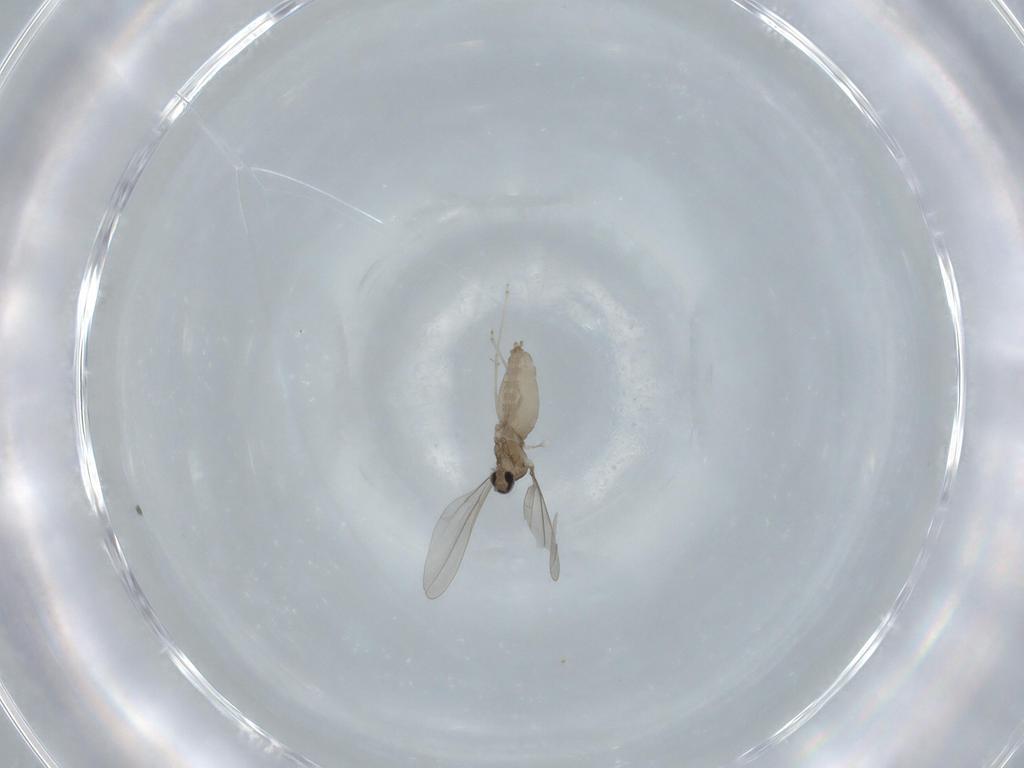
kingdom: Animalia
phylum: Arthropoda
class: Insecta
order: Diptera
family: Cecidomyiidae
